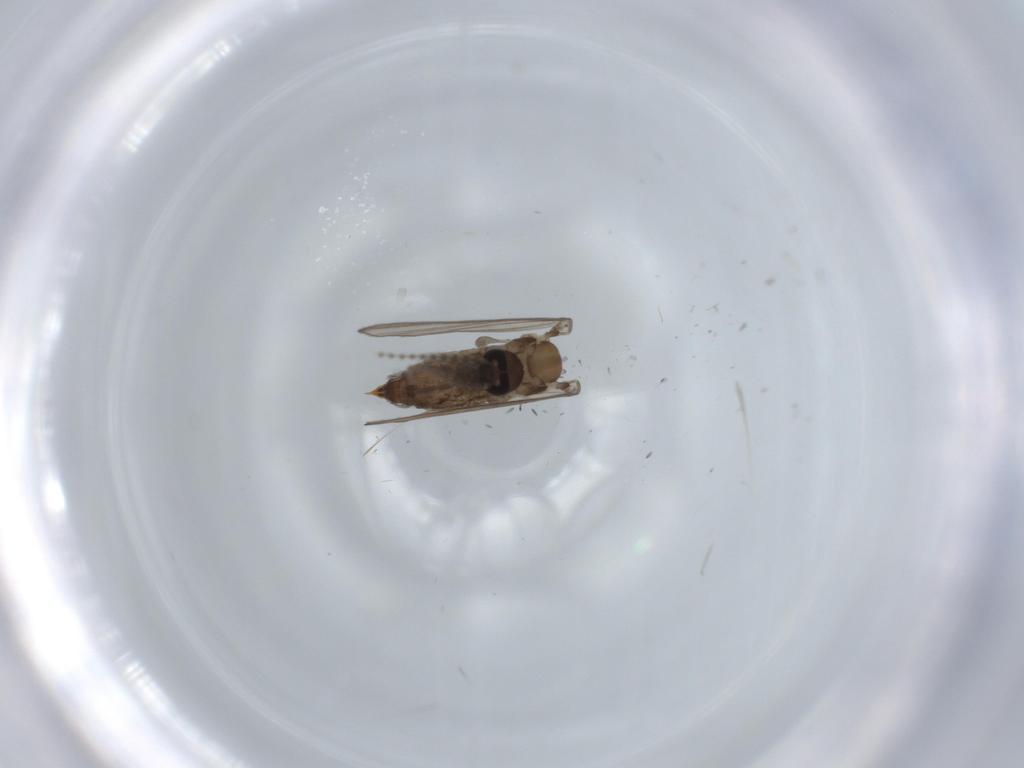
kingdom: Animalia
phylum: Arthropoda
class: Insecta
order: Diptera
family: Psychodidae
